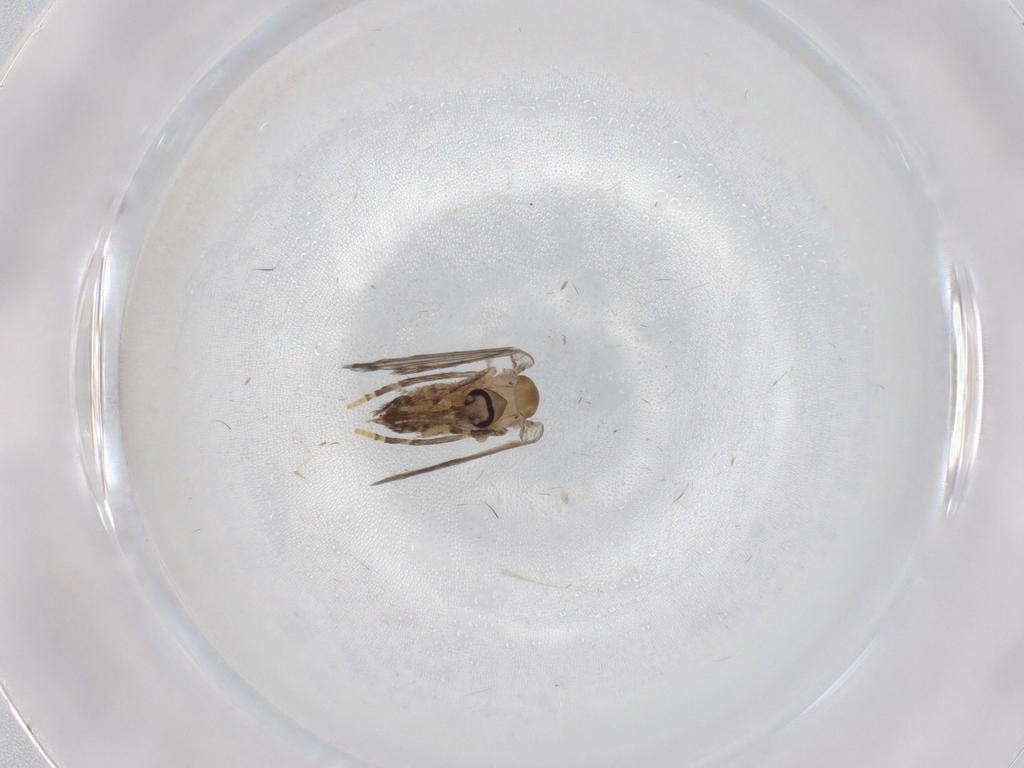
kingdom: Animalia
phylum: Arthropoda
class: Insecta
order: Diptera
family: Psychodidae
